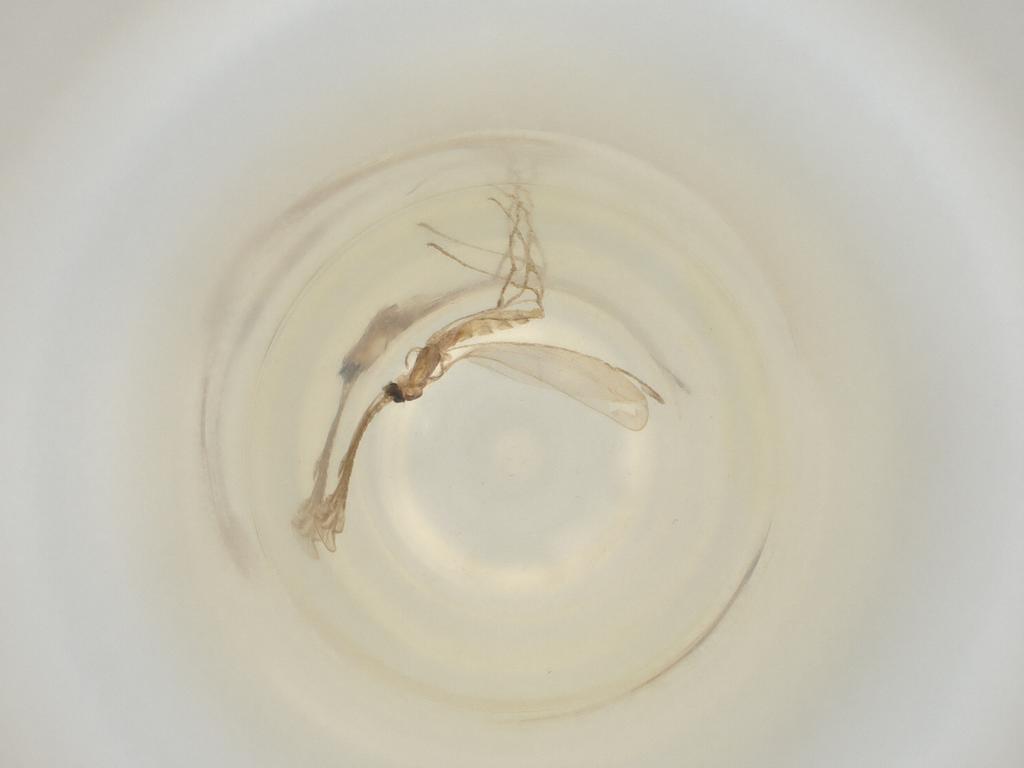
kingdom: Animalia
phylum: Arthropoda
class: Insecta
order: Diptera
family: Cecidomyiidae
